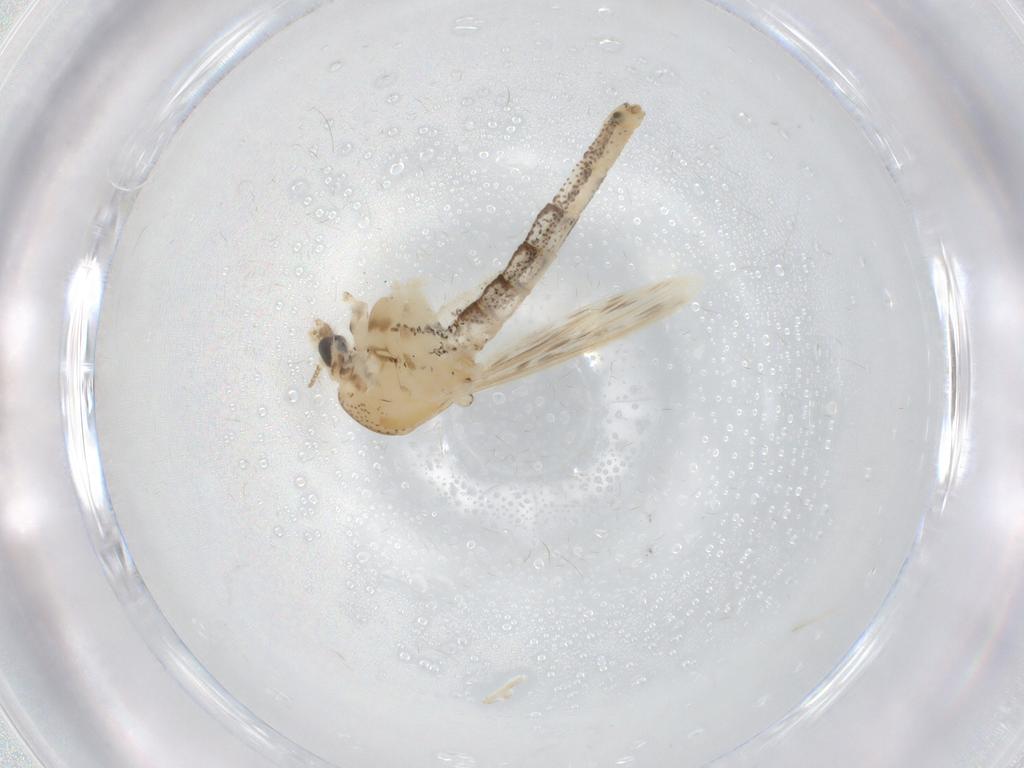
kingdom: Animalia
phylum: Arthropoda
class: Insecta
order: Diptera
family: Chaoboridae
